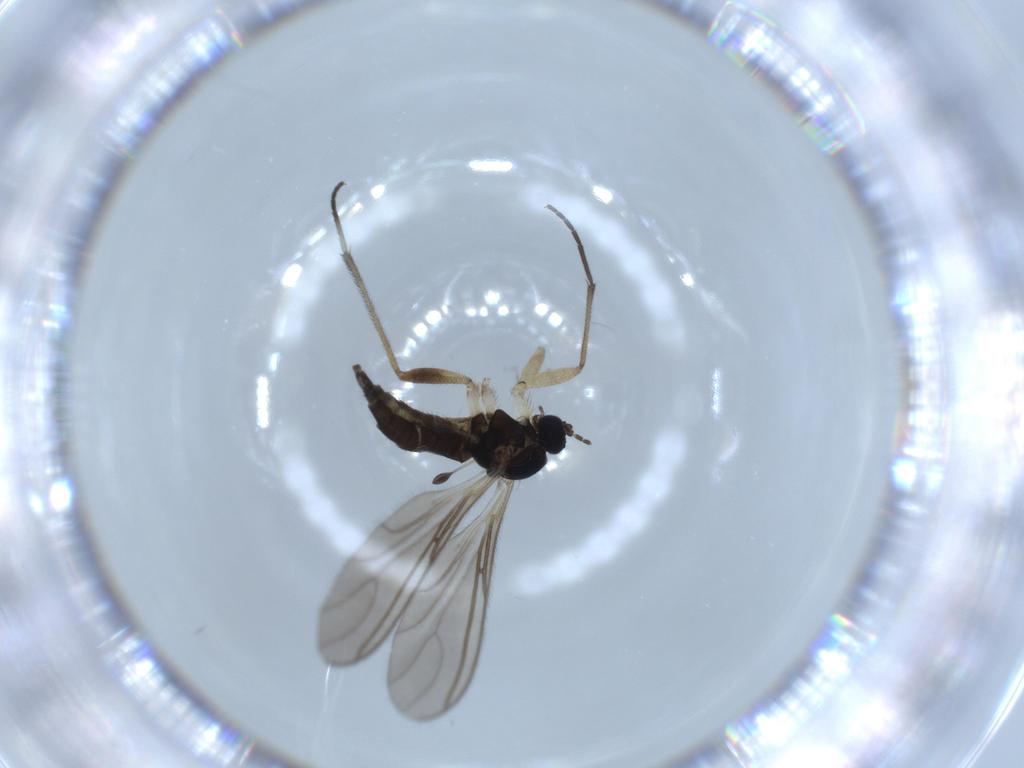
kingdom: Animalia
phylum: Arthropoda
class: Insecta
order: Diptera
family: Sciaridae
